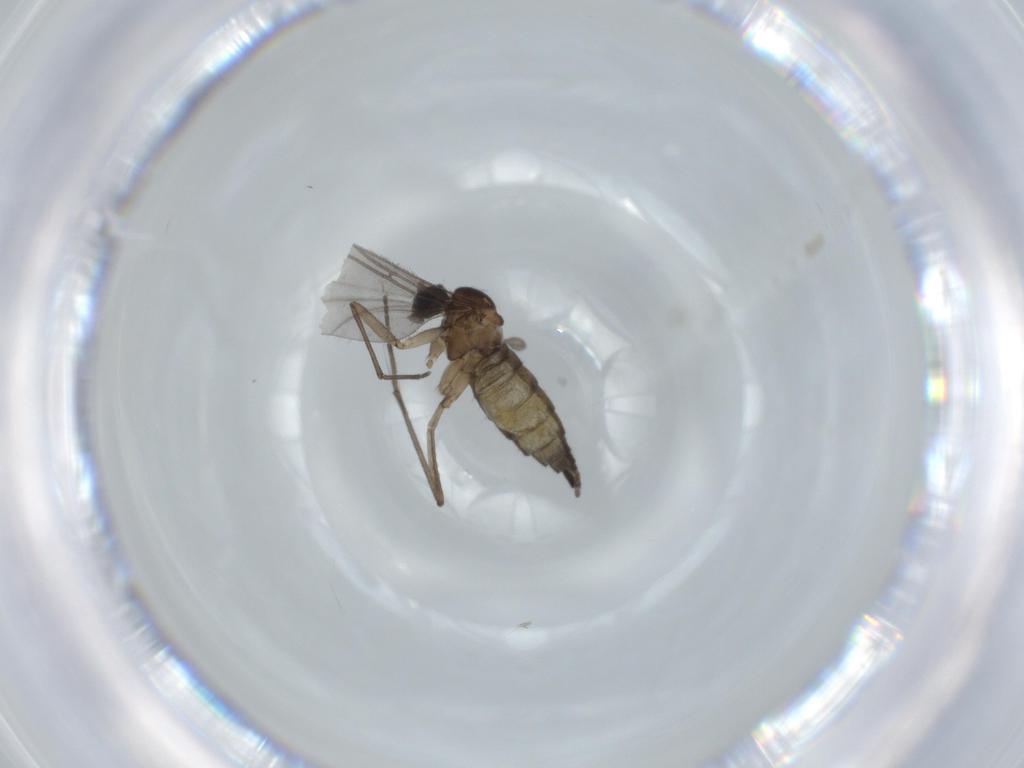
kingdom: Animalia
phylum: Arthropoda
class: Insecta
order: Diptera
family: Sciaridae
